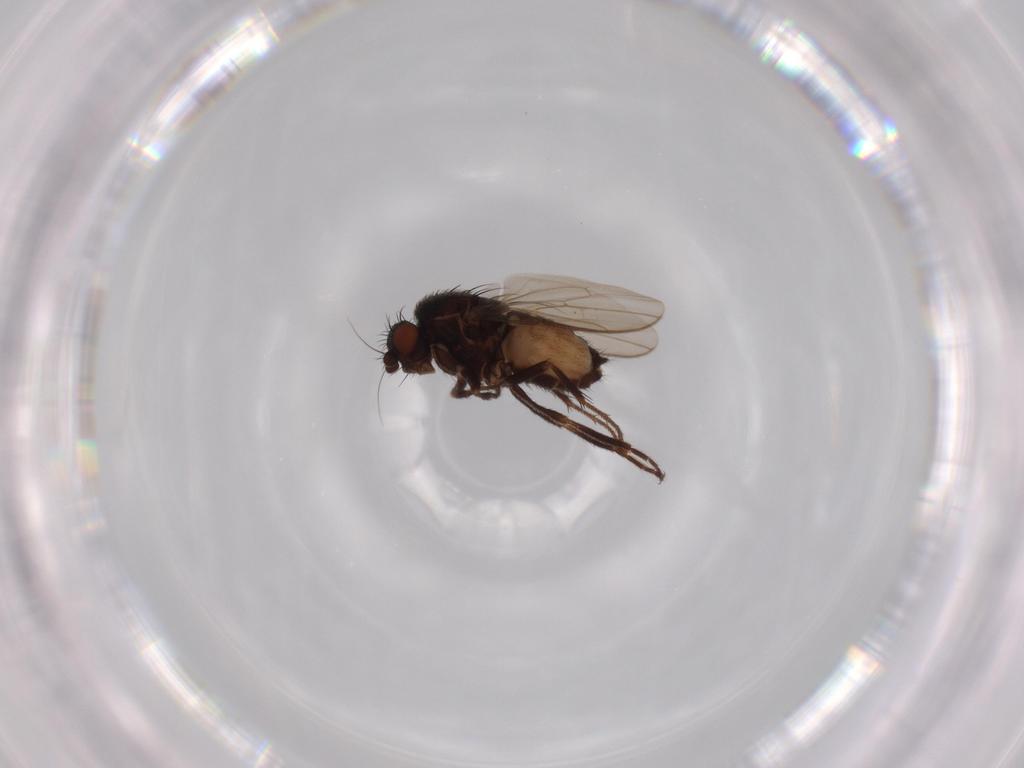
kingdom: Animalia
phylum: Arthropoda
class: Insecta
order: Diptera
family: Sphaeroceridae
